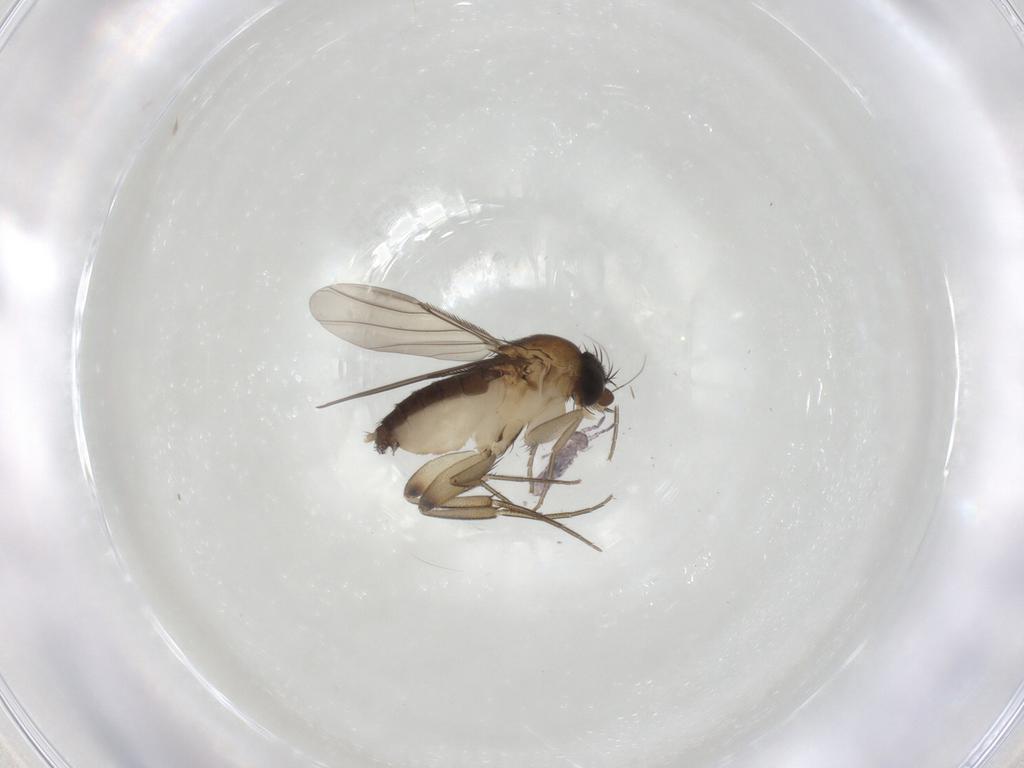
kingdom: Animalia
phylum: Arthropoda
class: Insecta
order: Diptera
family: Phoridae
